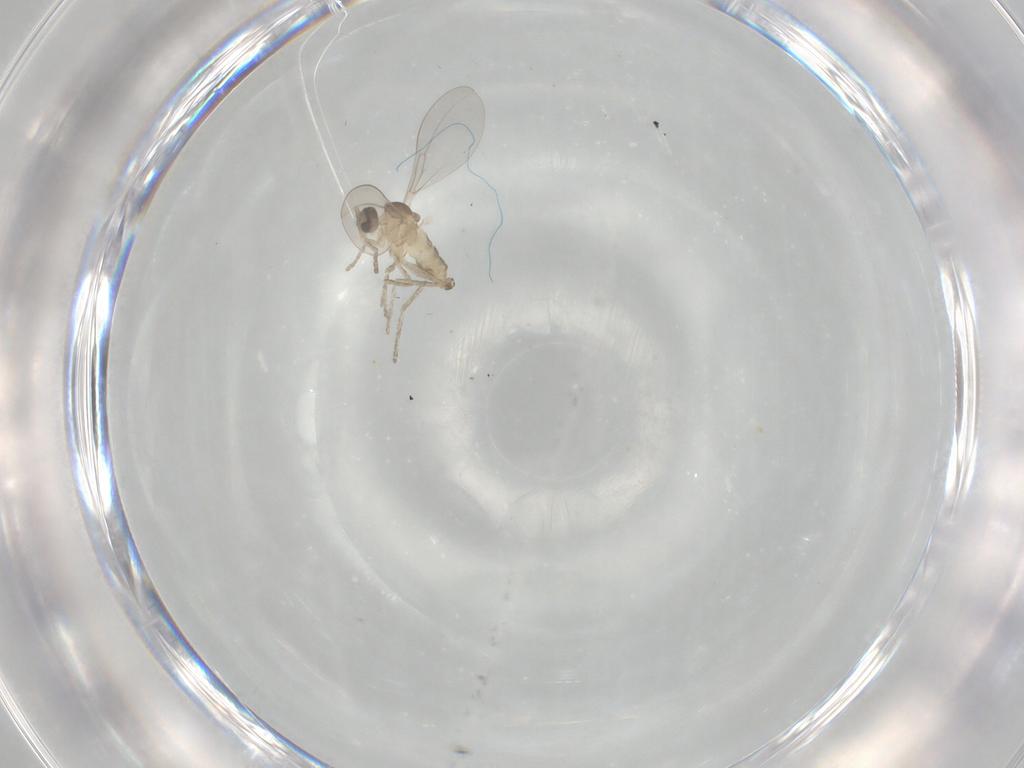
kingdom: Animalia
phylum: Arthropoda
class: Insecta
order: Diptera
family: Cecidomyiidae
